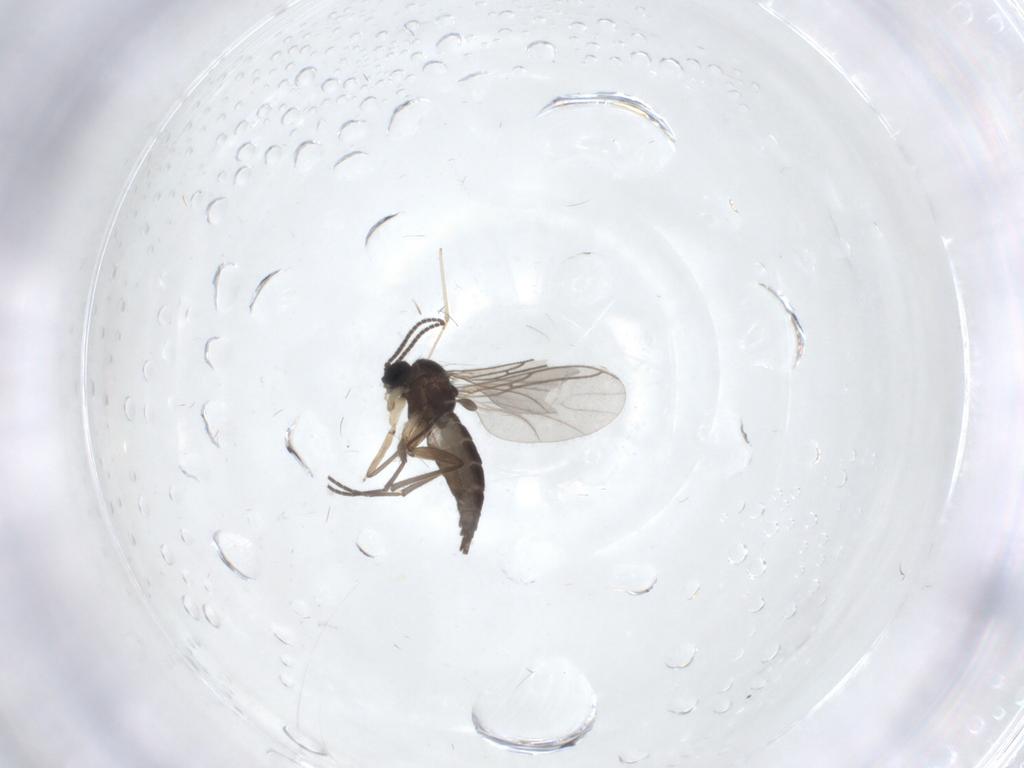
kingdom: Animalia
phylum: Arthropoda
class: Insecta
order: Diptera
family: Sciaridae
